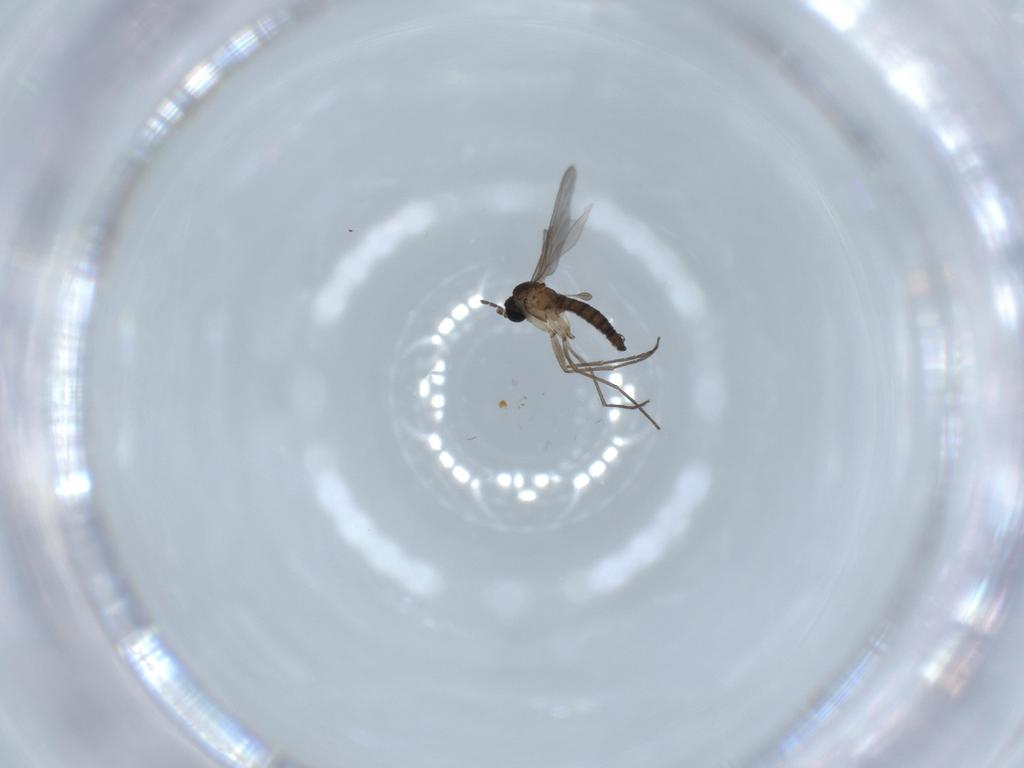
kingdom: Animalia
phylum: Arthropoda
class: Insecta
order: Diptera
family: Sciaridae
